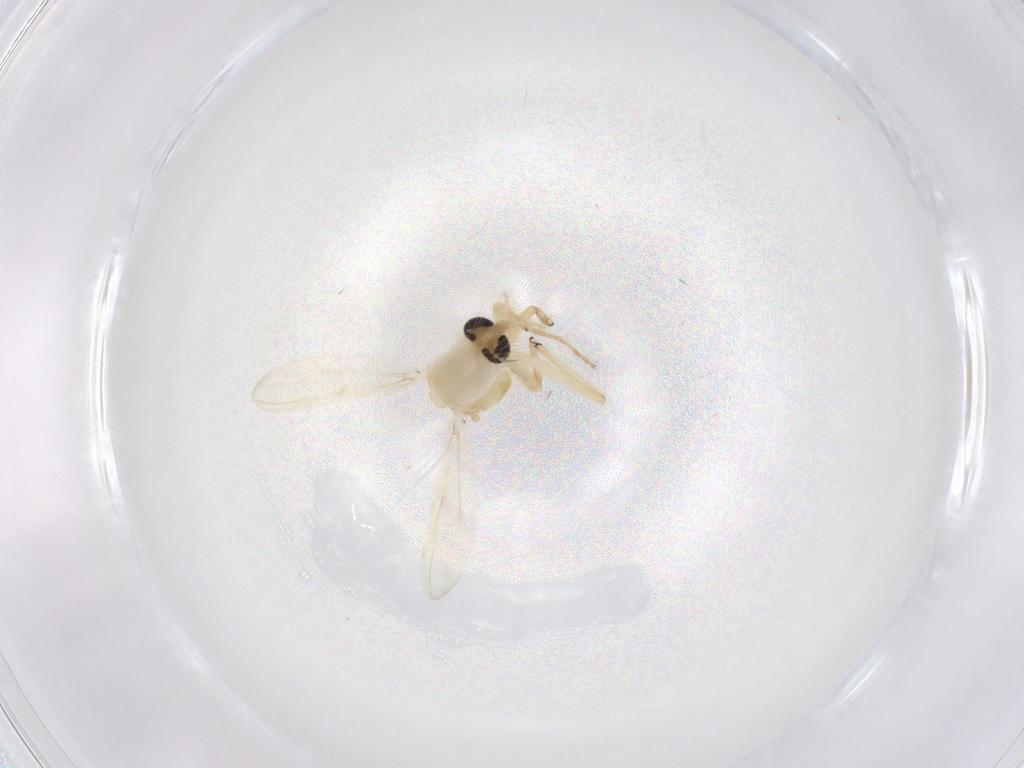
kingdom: Animalia
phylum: Arthropoda
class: Insecta
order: Diptera
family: Chironomidae
